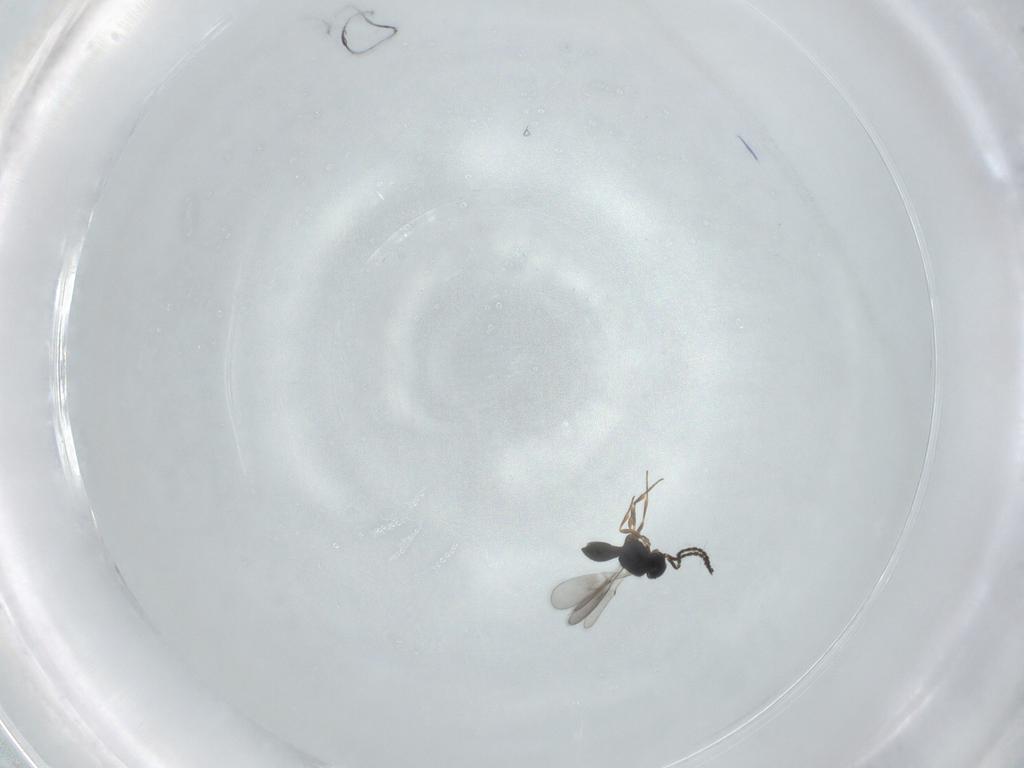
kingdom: Animalia
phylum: Arthropoda
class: Insecta
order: Hymenoptera
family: Scelionidae
